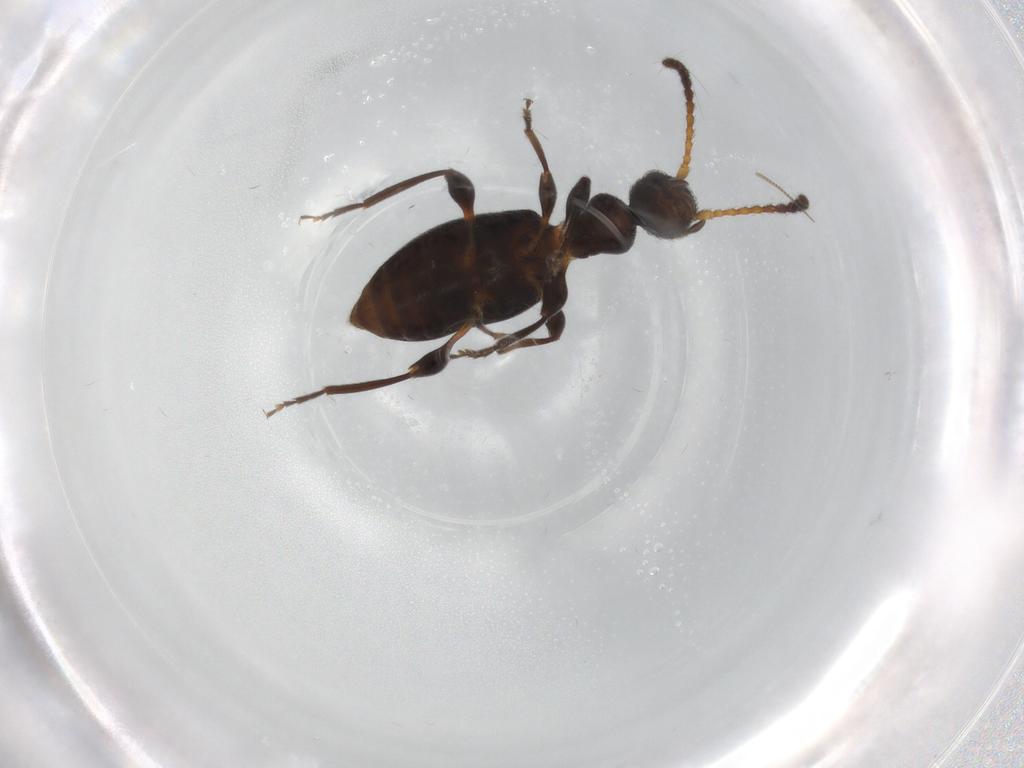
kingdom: Animalia
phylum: Arthropoda
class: Insecta
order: Coleoptera
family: Anthicidae
